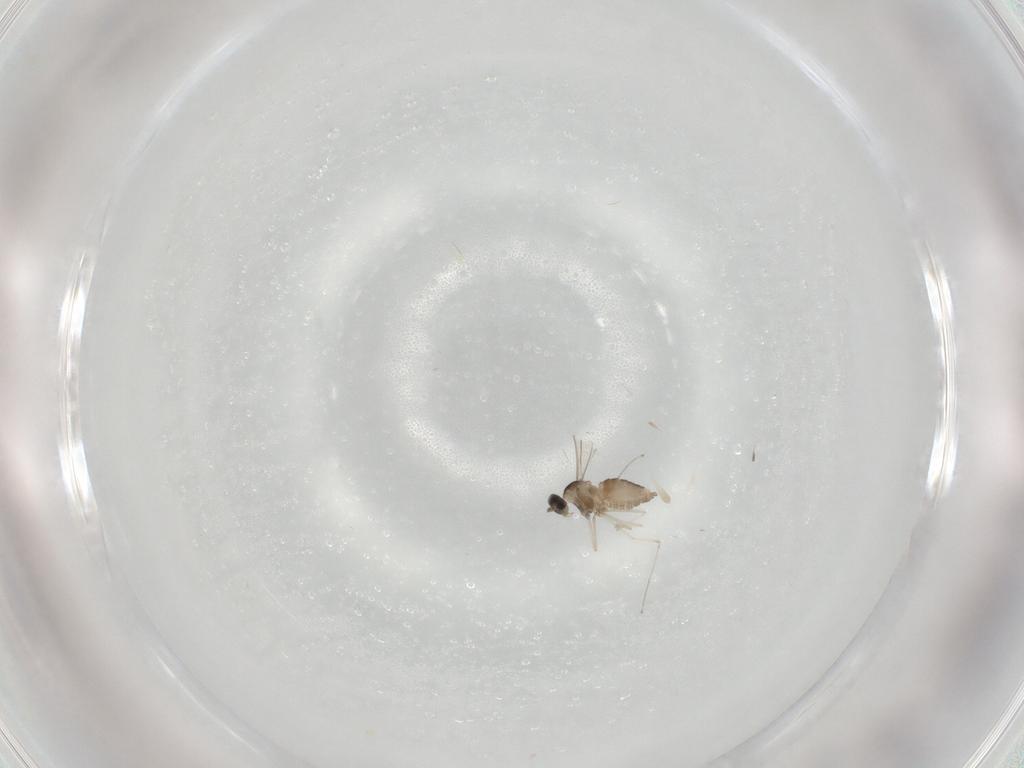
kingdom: Animalia
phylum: Arthropoda
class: Insecta
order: Diptera
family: Cecidomyiidae
